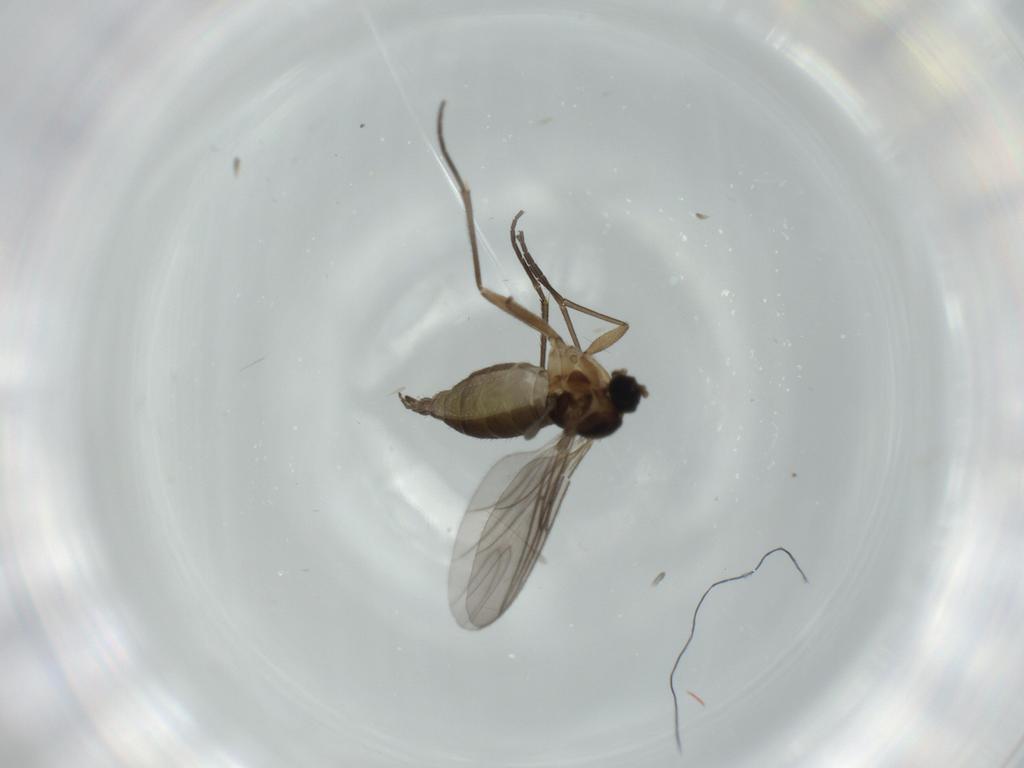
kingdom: Animalia
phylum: Arthropoda
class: Insecta
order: Diptera
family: Sciaridae
